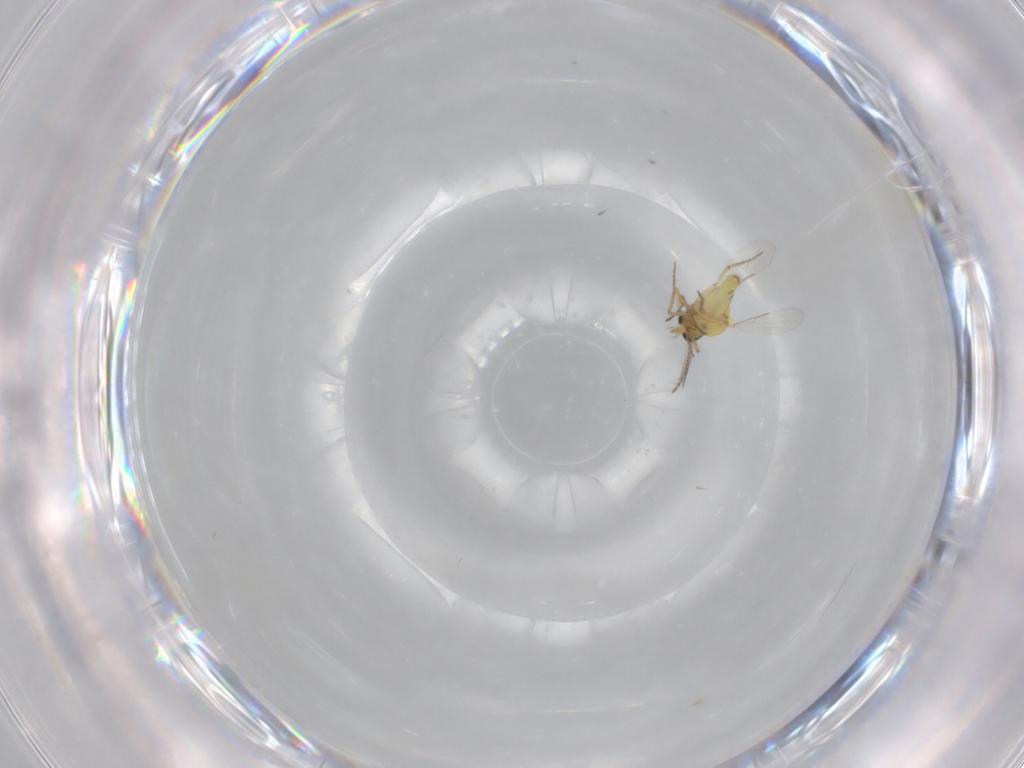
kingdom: Animalia
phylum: Arthropoda
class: Insecta
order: Diptera
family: Ceratopogonidae
